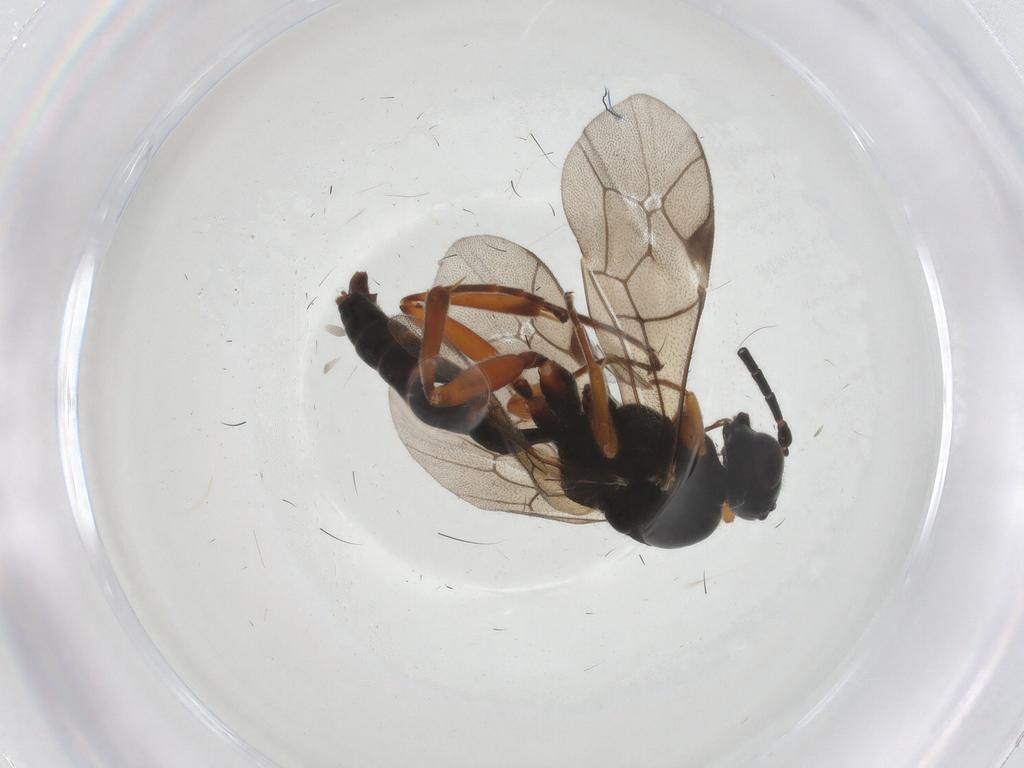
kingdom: Animalia
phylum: Arthropoda
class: Insecta
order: Hymenoptera
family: Ichneumonidae
